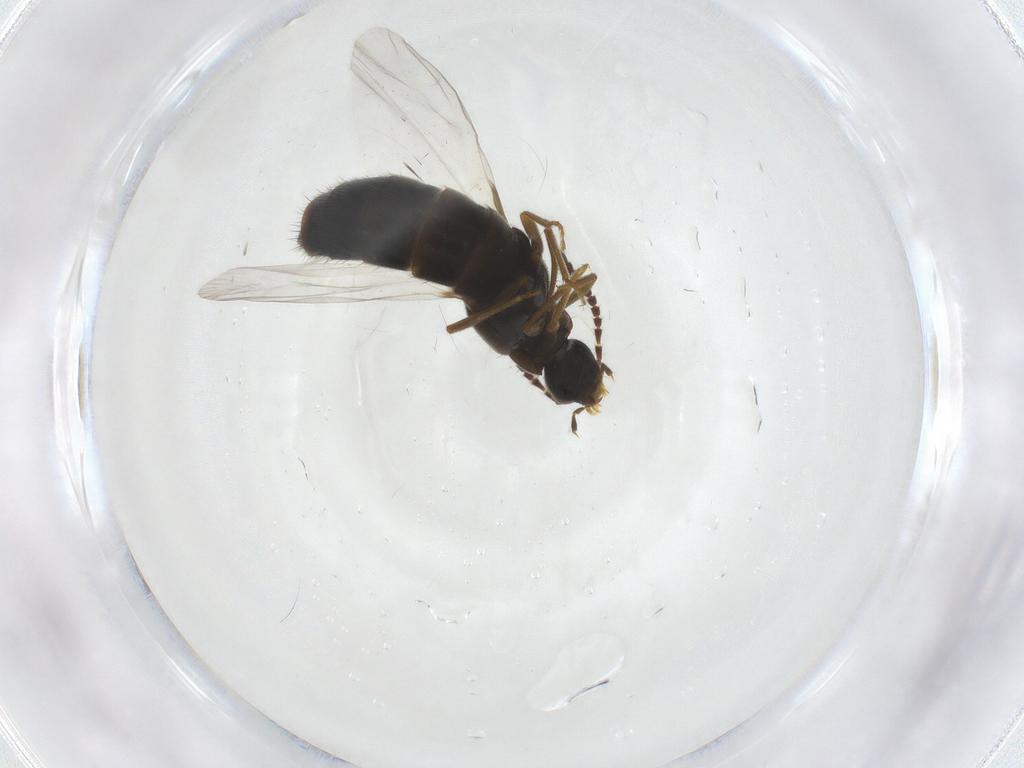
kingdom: Animalia
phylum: Arthropoda
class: Insecta
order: Coleoptera
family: Staphylinidae
